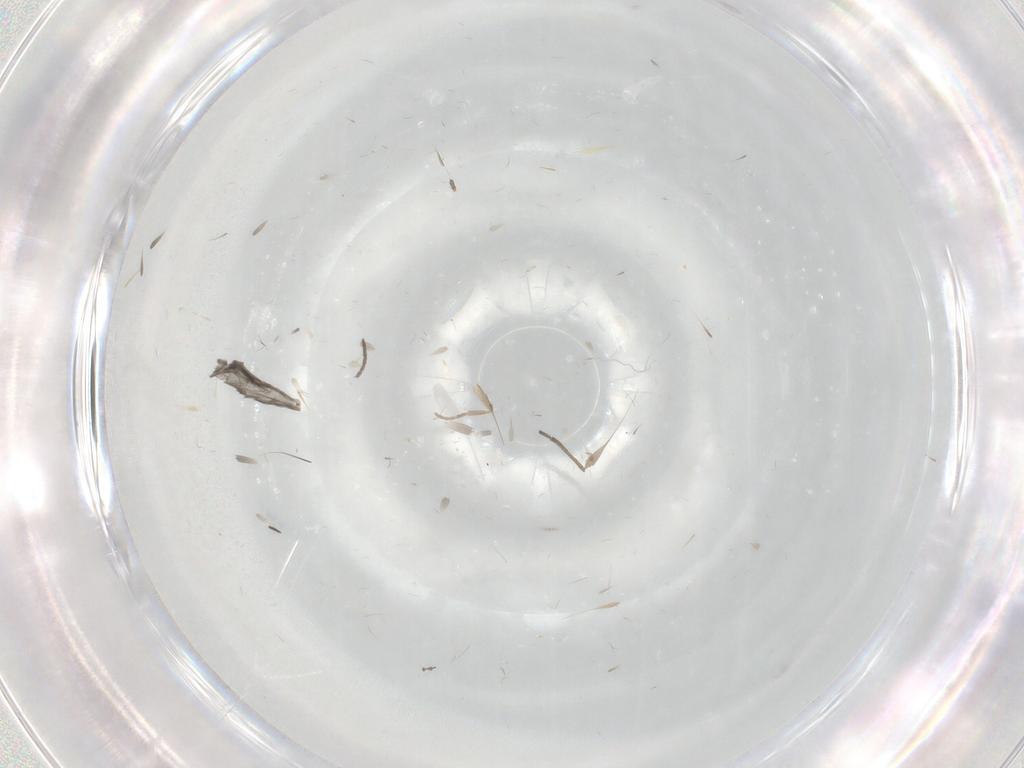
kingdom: Animalia
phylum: Arthropoda
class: Insecta
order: Diptera
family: Sciaridae
